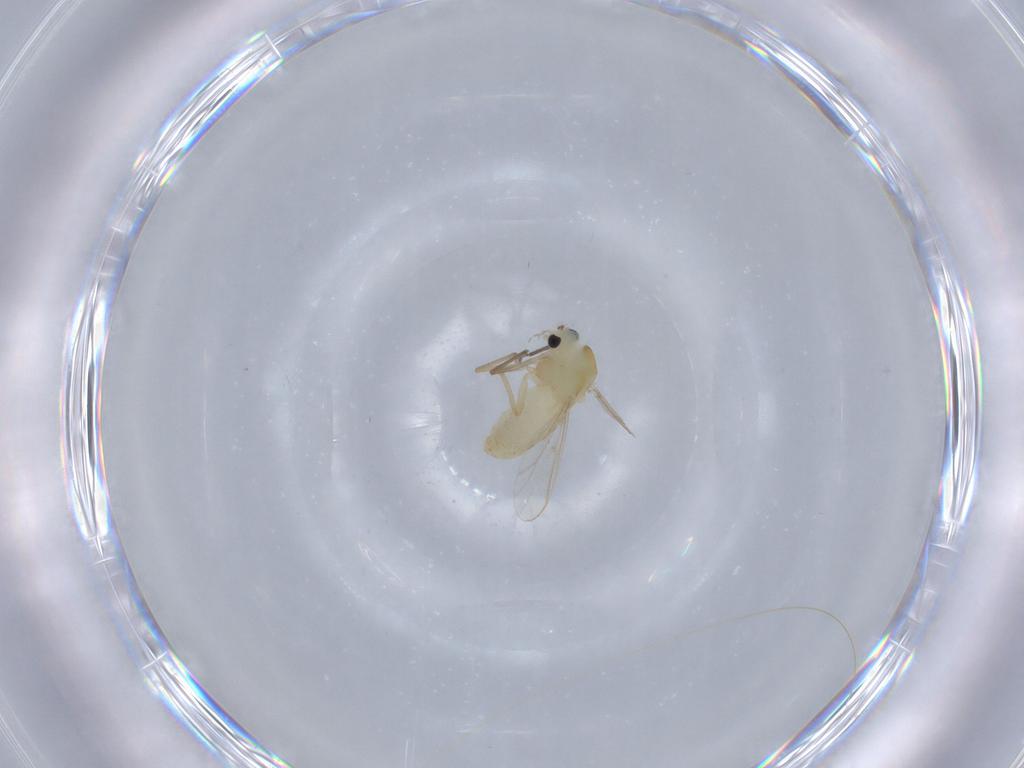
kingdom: Animalia
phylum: Arthropoda
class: Insecta
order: Diptera
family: Chironomidae
